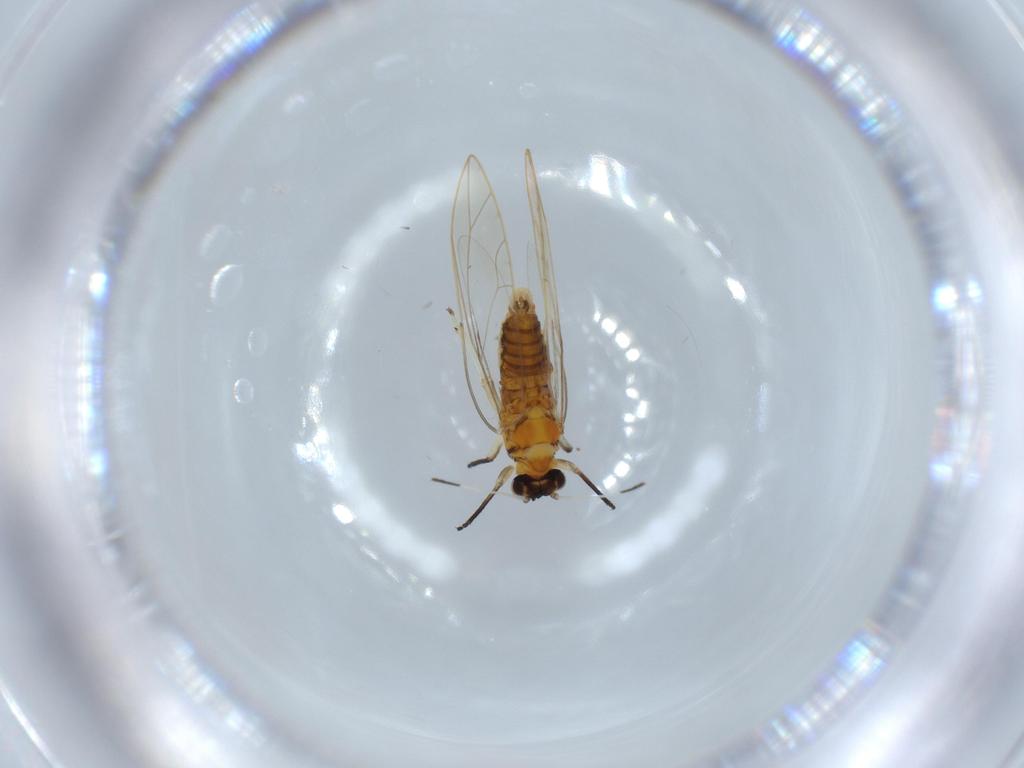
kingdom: Animalia
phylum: Arthropoda
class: Insecta
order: Hemiptera
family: Triozidae
